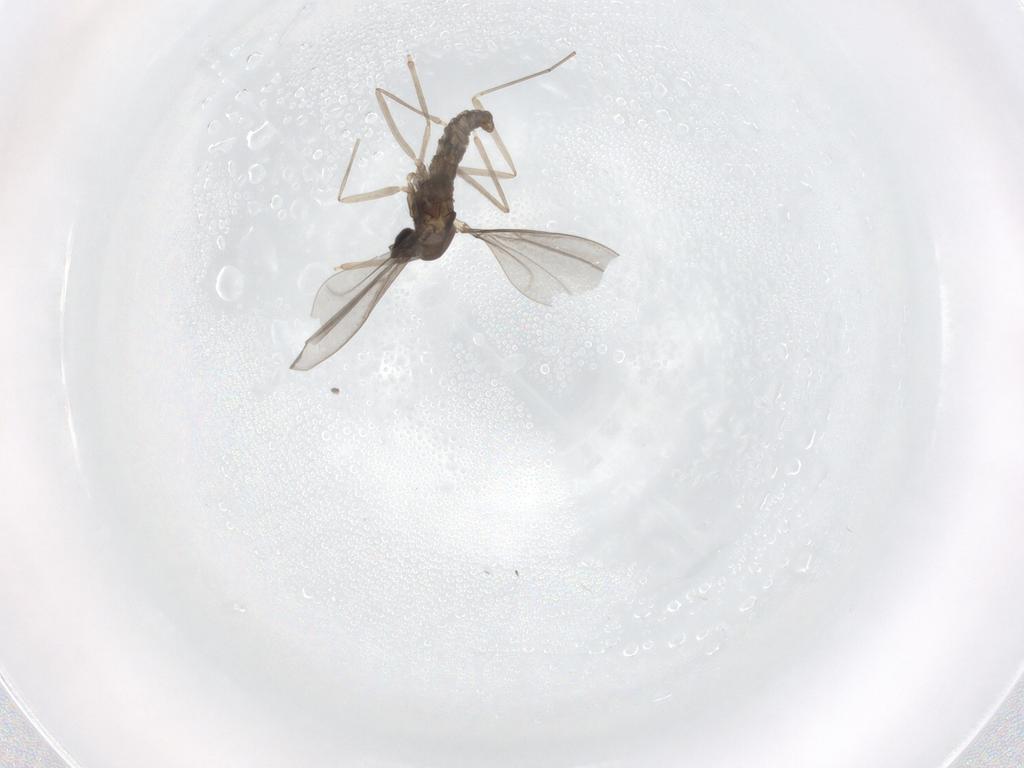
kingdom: Animalia
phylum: Arthropoda
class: Insecta
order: Diptera
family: Cecidomyiidae
